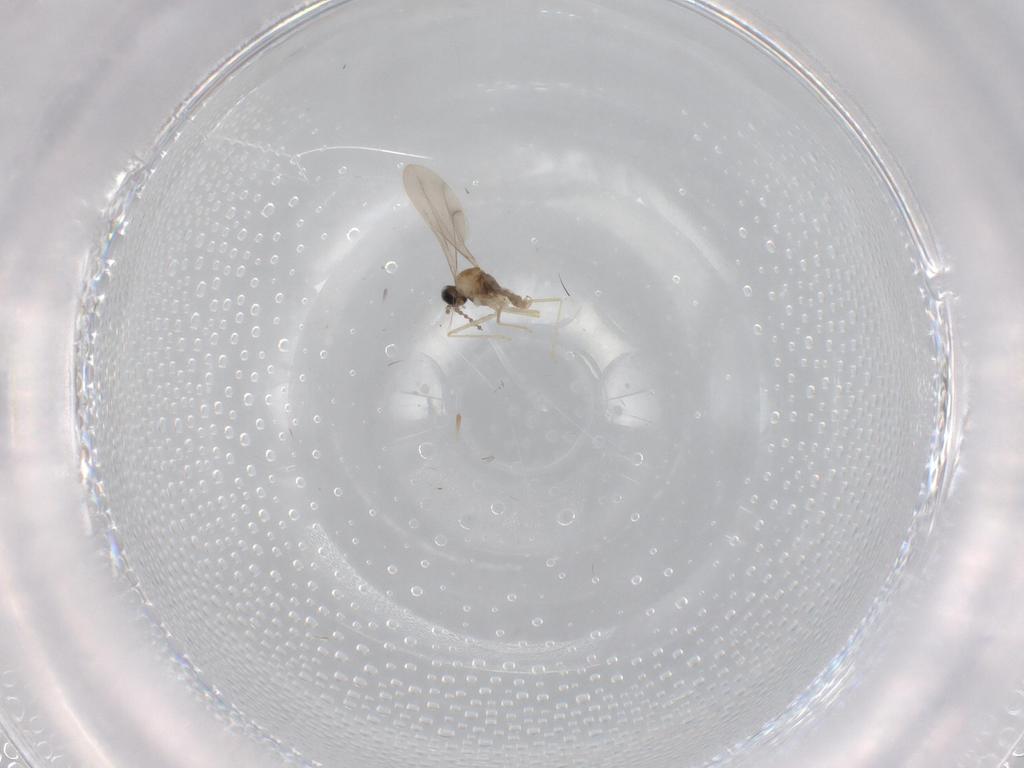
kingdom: Animalia
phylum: Arthropoda
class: Insecta
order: Diptera
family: Cecidomyiidae
